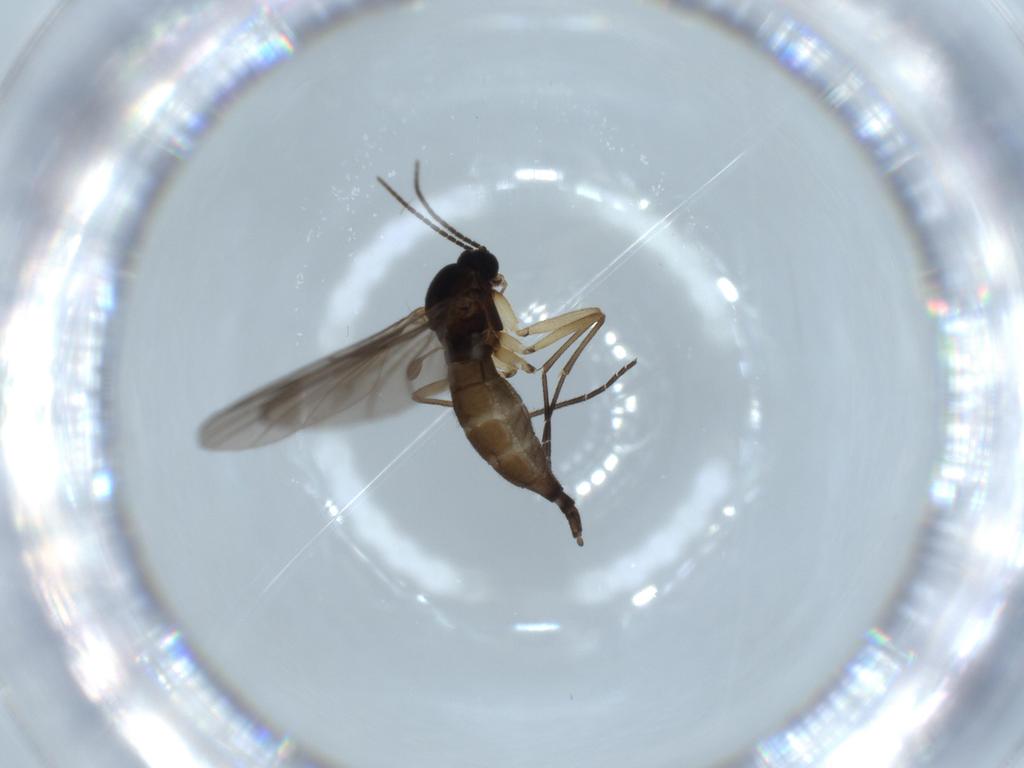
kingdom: Animalia
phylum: Arthropoda
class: Insecta
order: Diptera
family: Sciaridae
